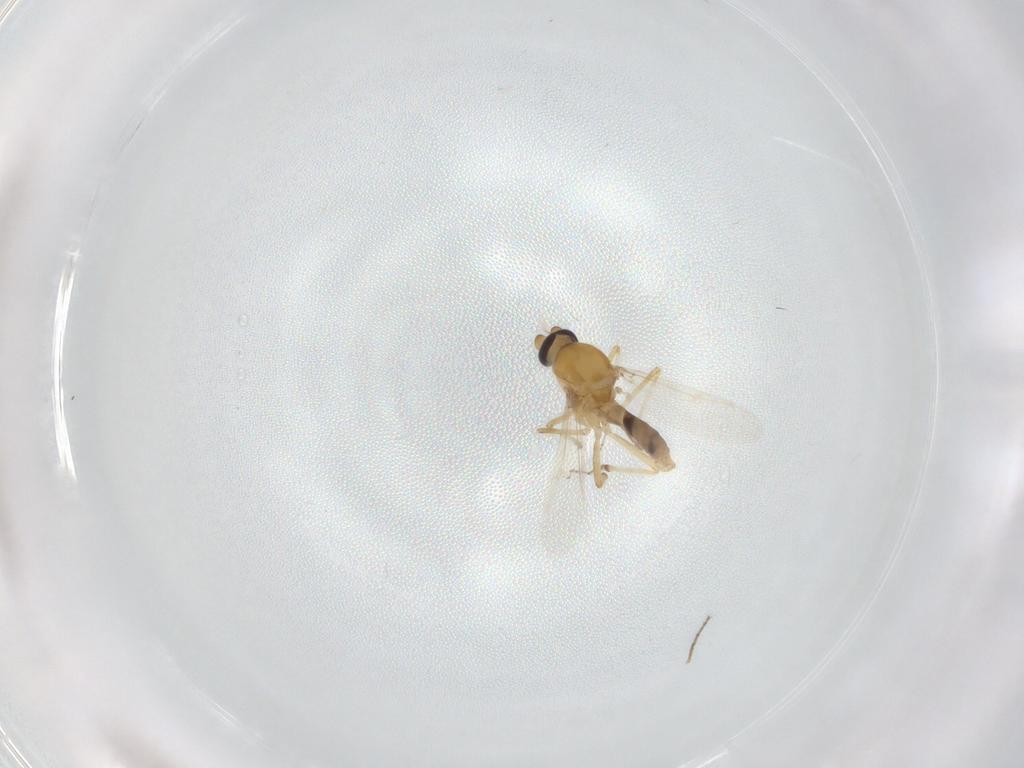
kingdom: Animalia
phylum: Arthropoda
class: Insecta
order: Diptera
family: Ceratopogonidae
